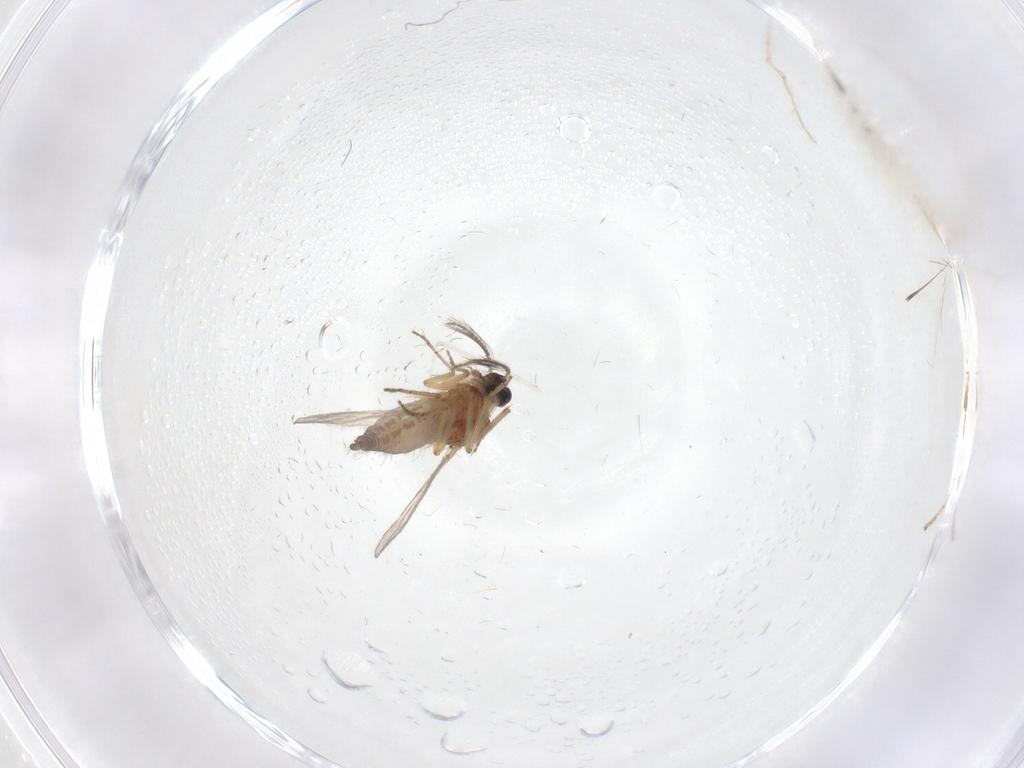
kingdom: Animalia
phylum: Arthropoda
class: Insecta
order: Diptera
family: Limoniidae
